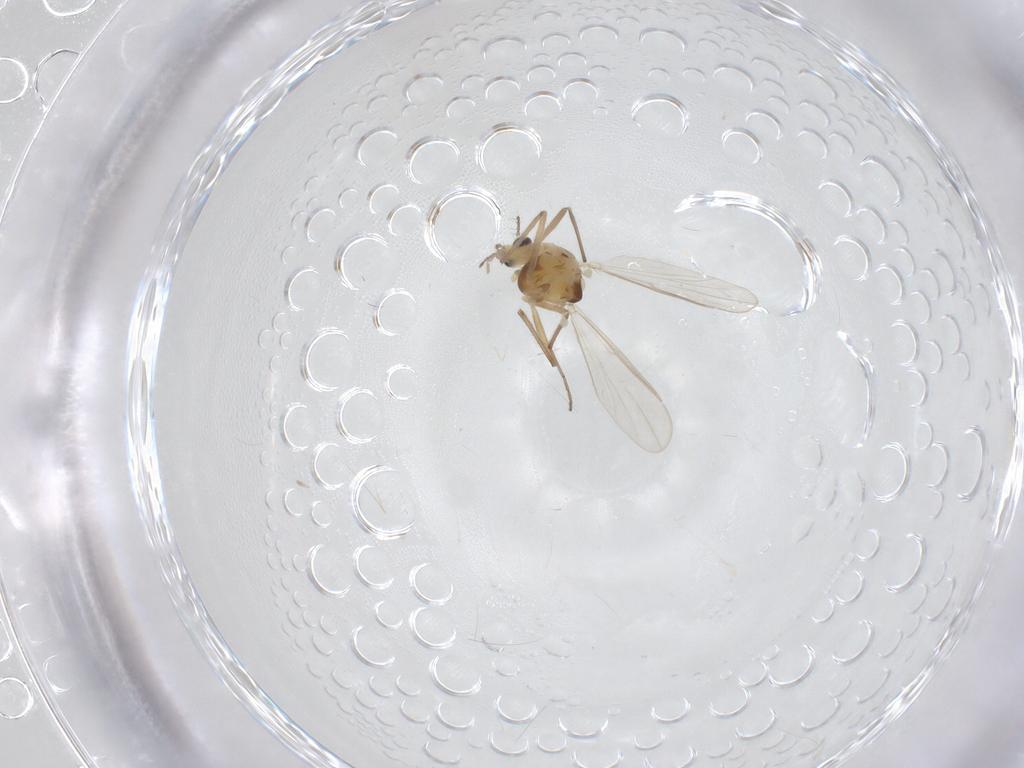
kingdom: Animalia
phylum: Arthropoda
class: Insecta
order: Diptera
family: Chironomidae
